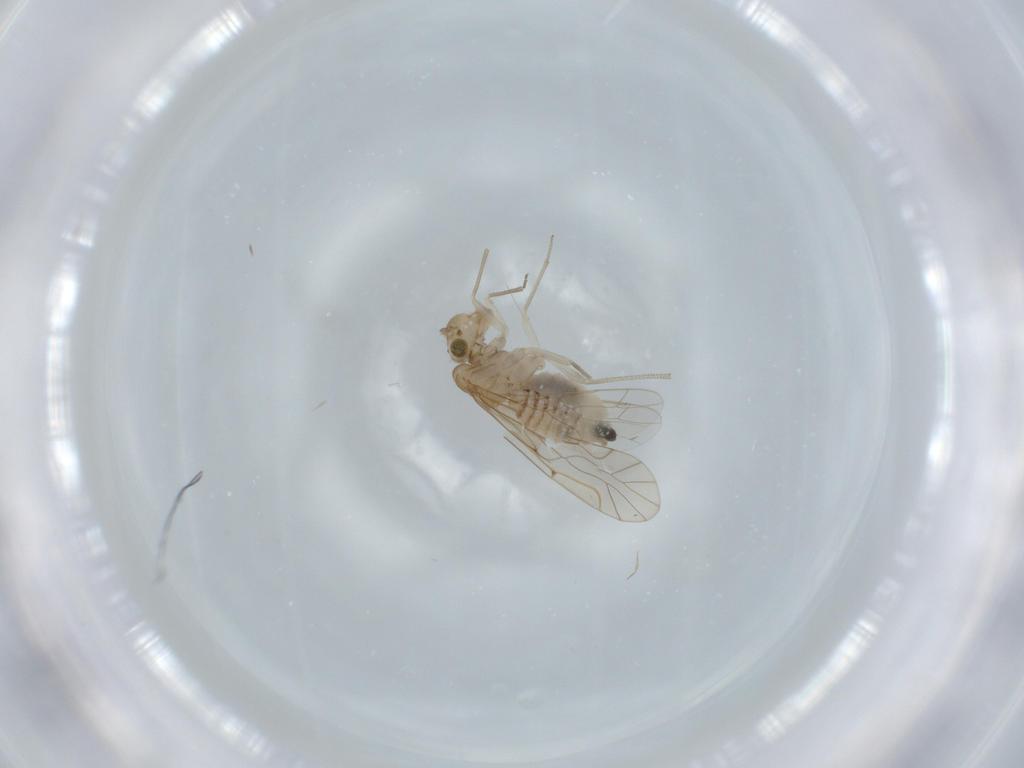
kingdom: Animalia
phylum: Arthropoda
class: Insecta
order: Psocodea
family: Lachesillidae
